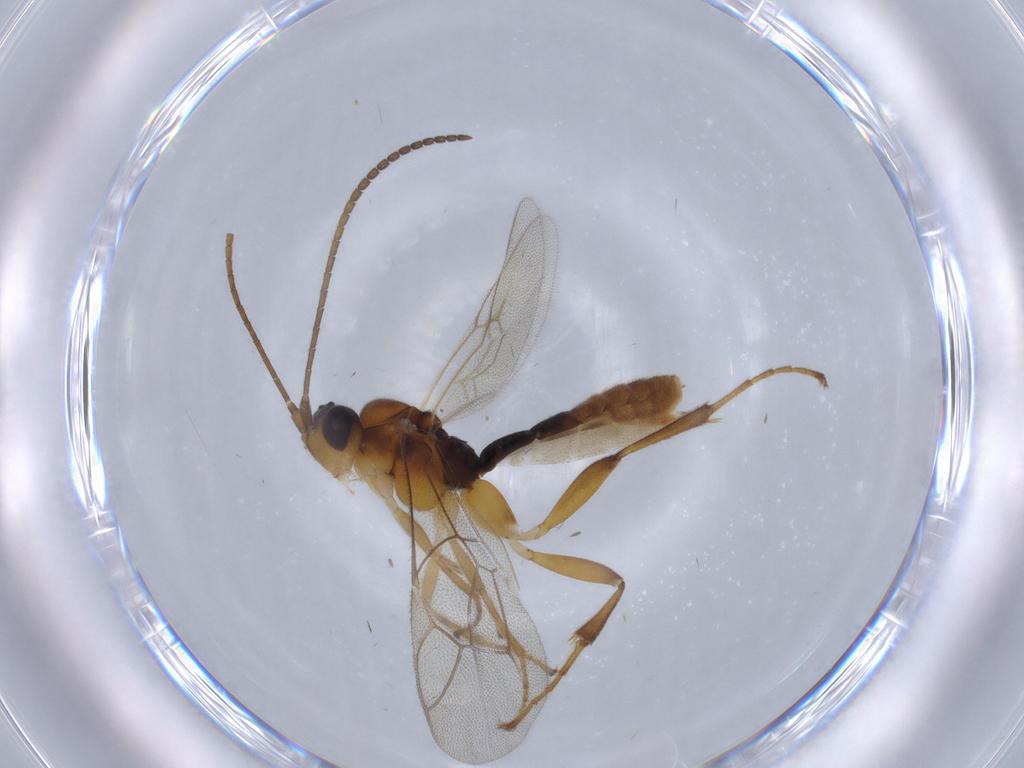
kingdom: Animalia
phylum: Arthropoda
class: Insecta
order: Hymenoptera
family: Ichneumonidae
